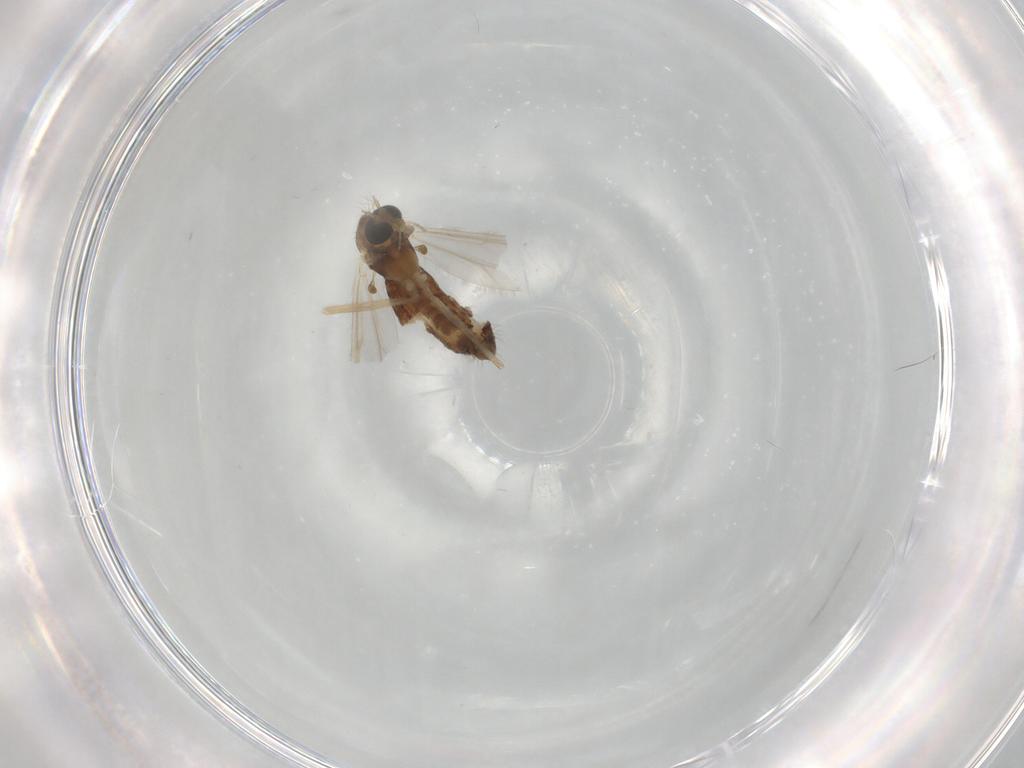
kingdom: Animalia
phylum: Arthropoda
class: Insecta
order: Diptera
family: Chironomidae
